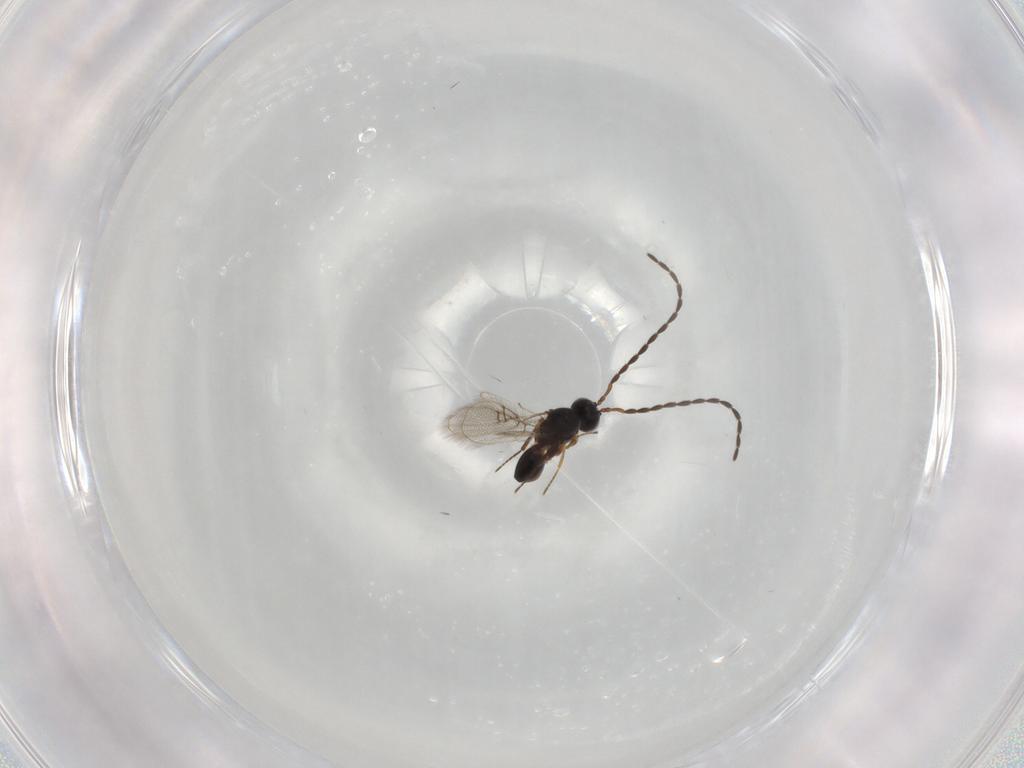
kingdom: Animalia
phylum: Arthropoda
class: Insecta
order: Hymenoptera
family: Figitidae
